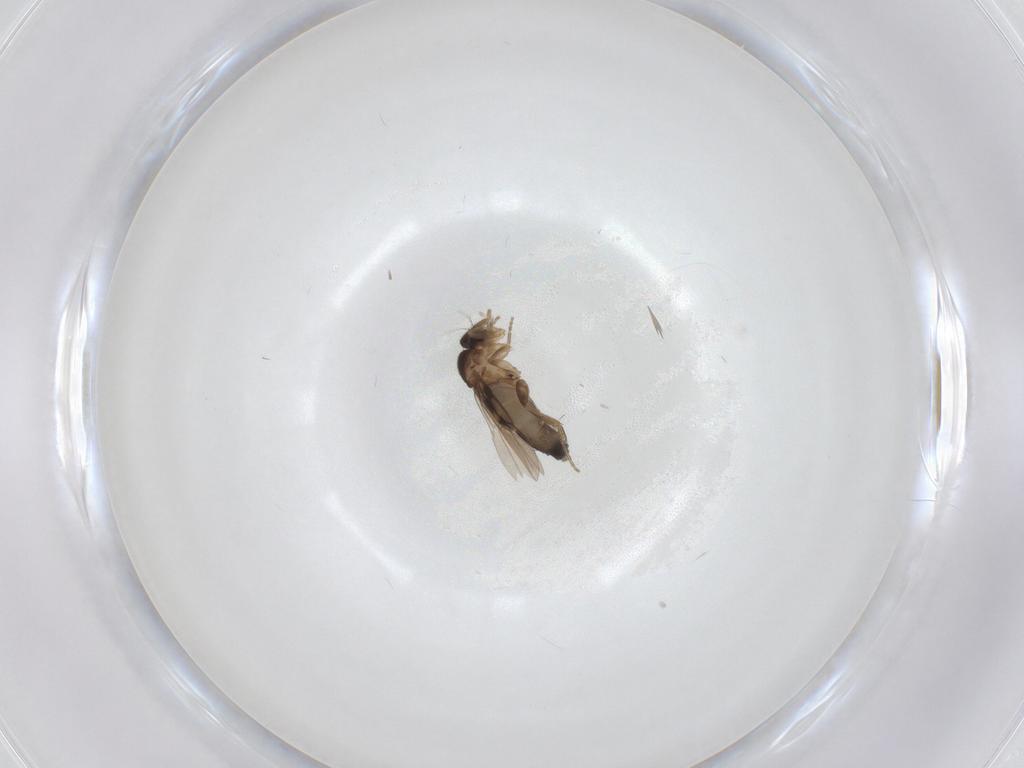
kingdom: Animalia
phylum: Arthropoda
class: Insecta
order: Diptera
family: Phoridae
